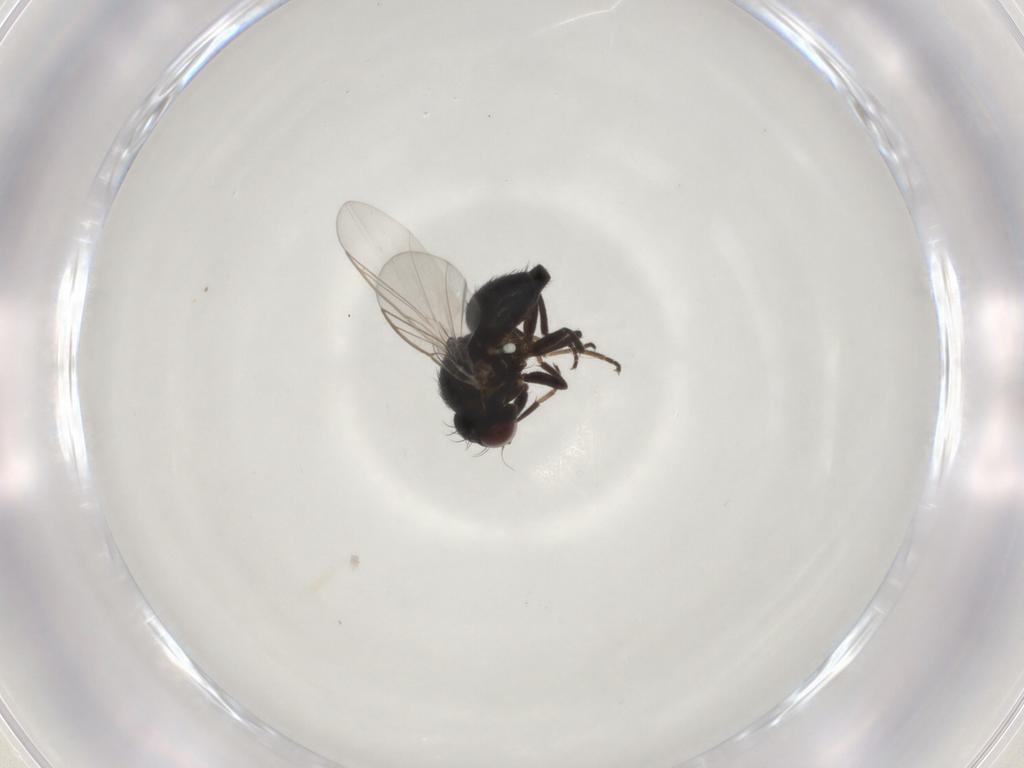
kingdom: Animalia
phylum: Arthropoda
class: Insecta
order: Diptera
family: Agromyzidae
